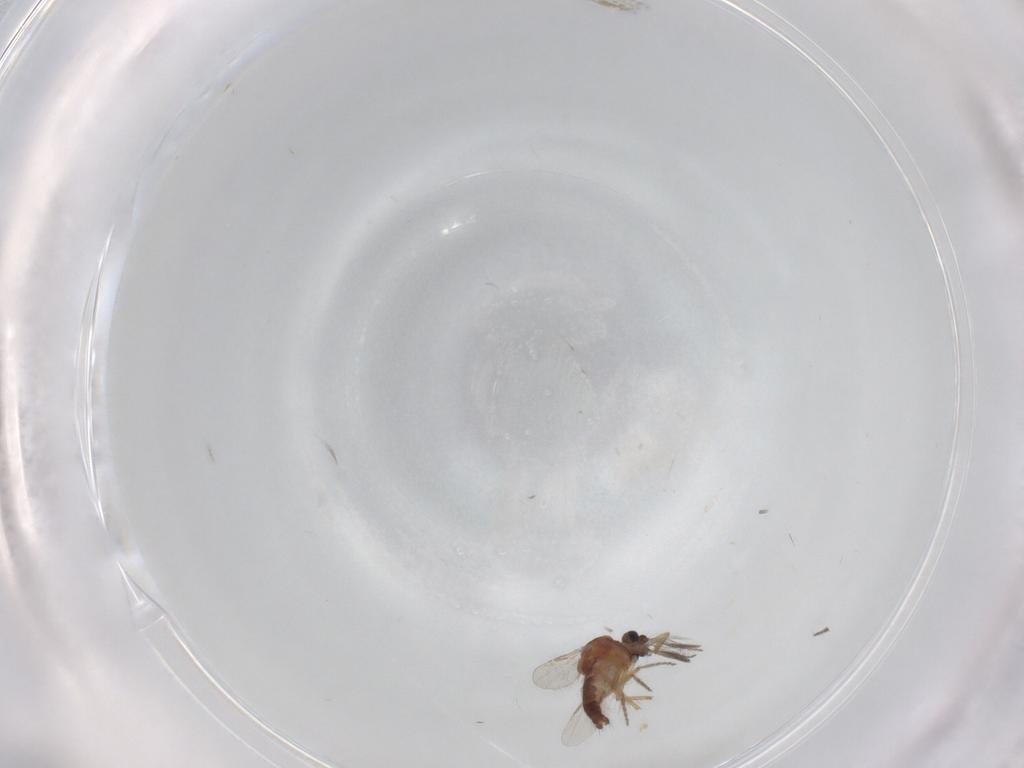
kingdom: Animalia
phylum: Arthropoda
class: Insecta
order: Diptera
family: Ceratopogonidae
